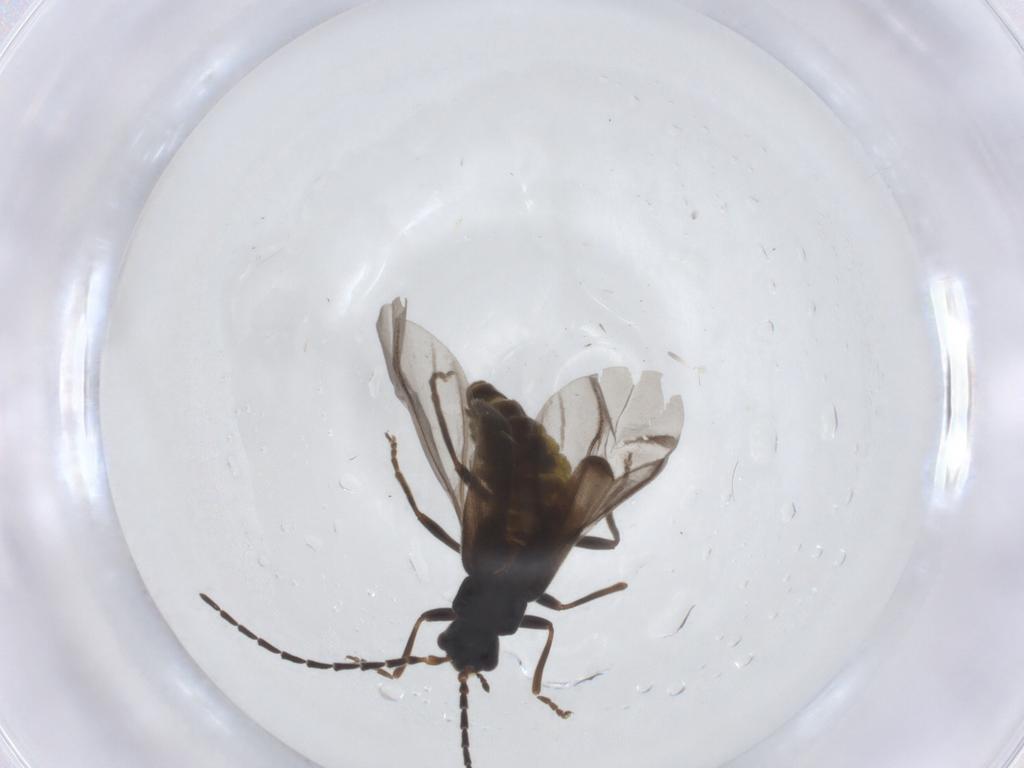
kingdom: Animalia
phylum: Arthropoda
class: Insecta
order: Coleoptera
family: Cantharidae
